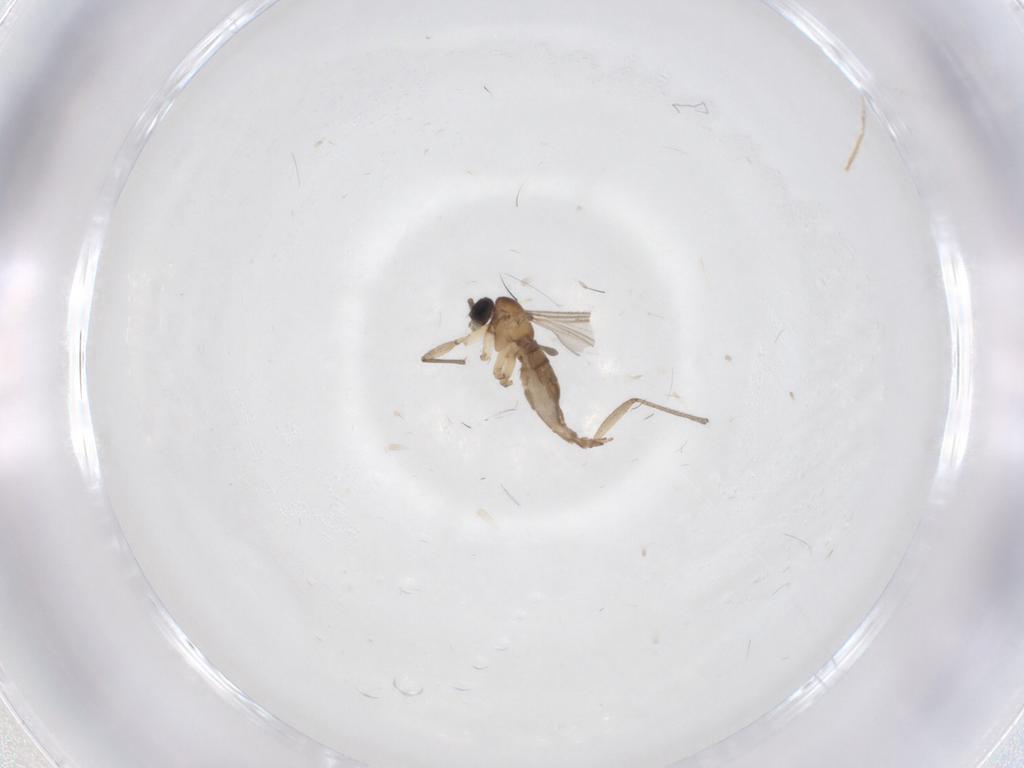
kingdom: Animalia
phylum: Arthropoda
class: Insecta
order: Diptera
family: Sciaridae
